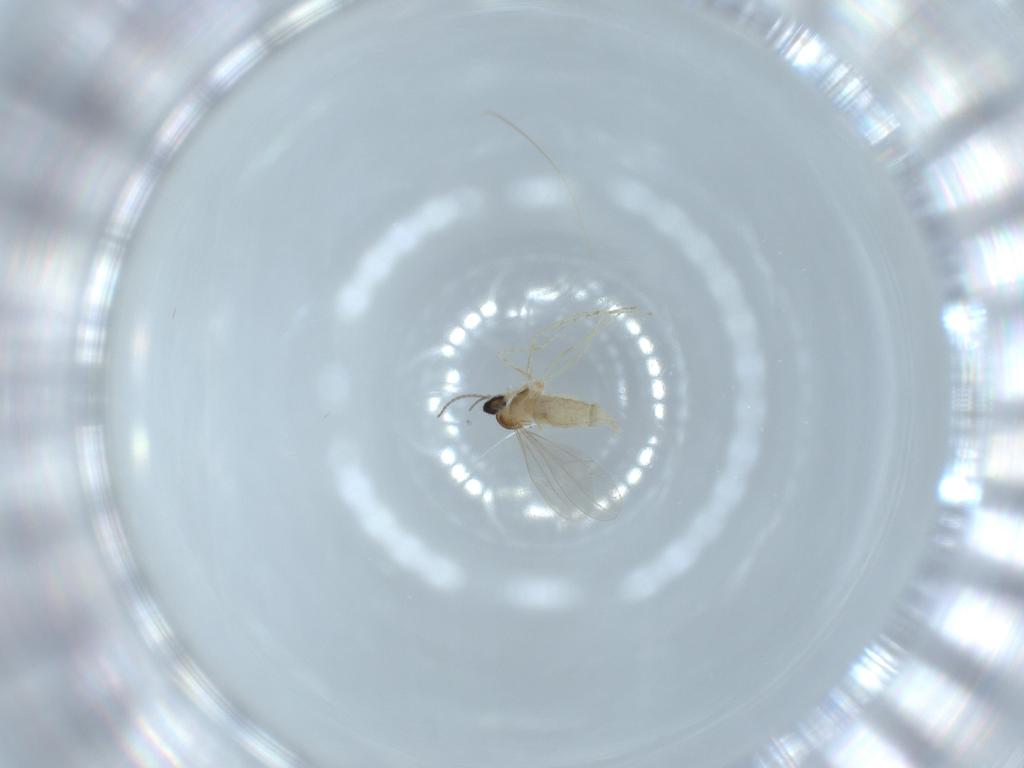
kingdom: Animalia
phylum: Arthropoda
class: Insecta
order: Diptera
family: Cecidomyiidae
